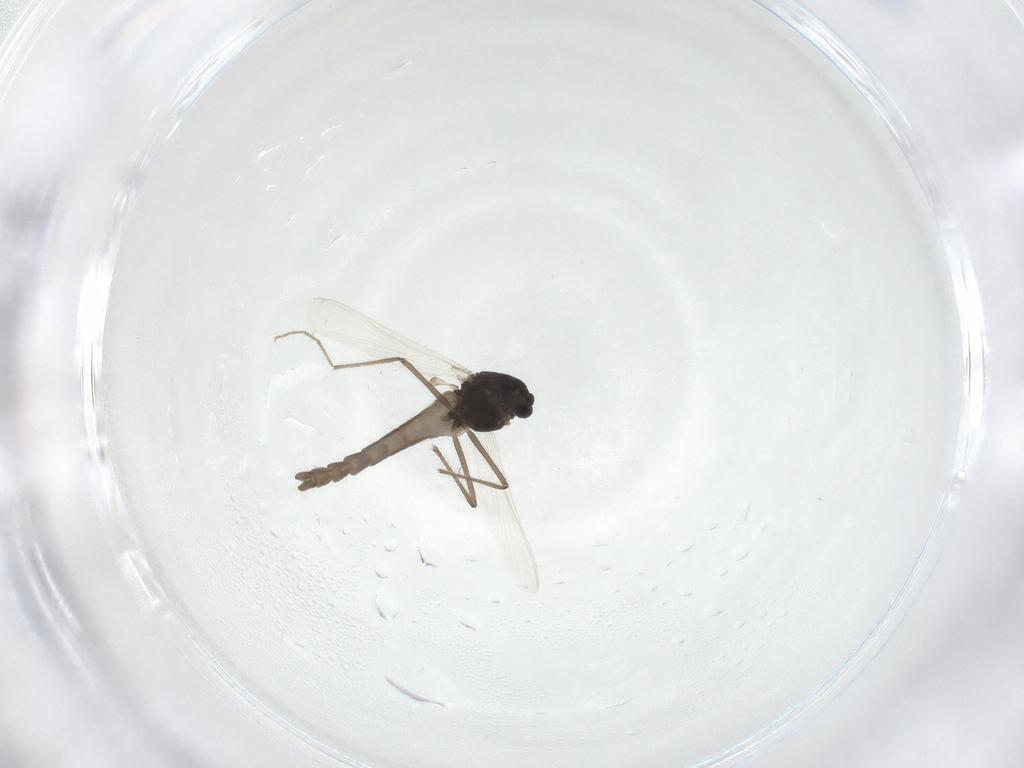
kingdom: Animalia
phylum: Arthropoda
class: Insecta
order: Diptera
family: Chironomidae
